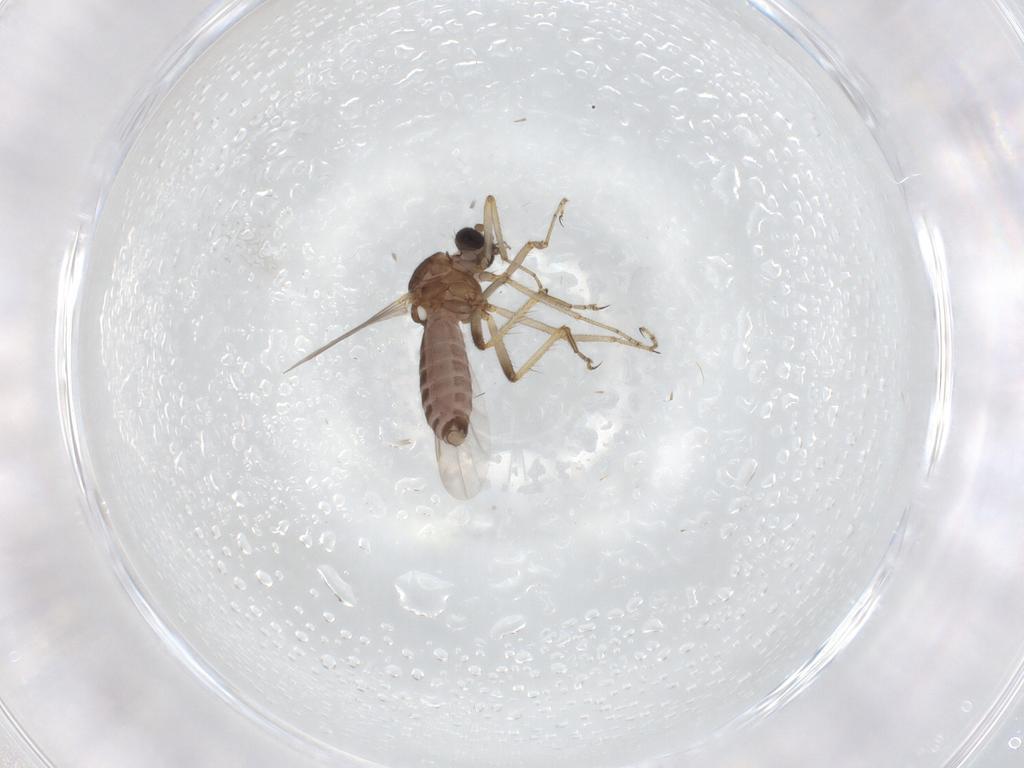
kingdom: Animalia
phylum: Arthropoda
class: Insecta
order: Diptera
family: Ceratopogonidae
